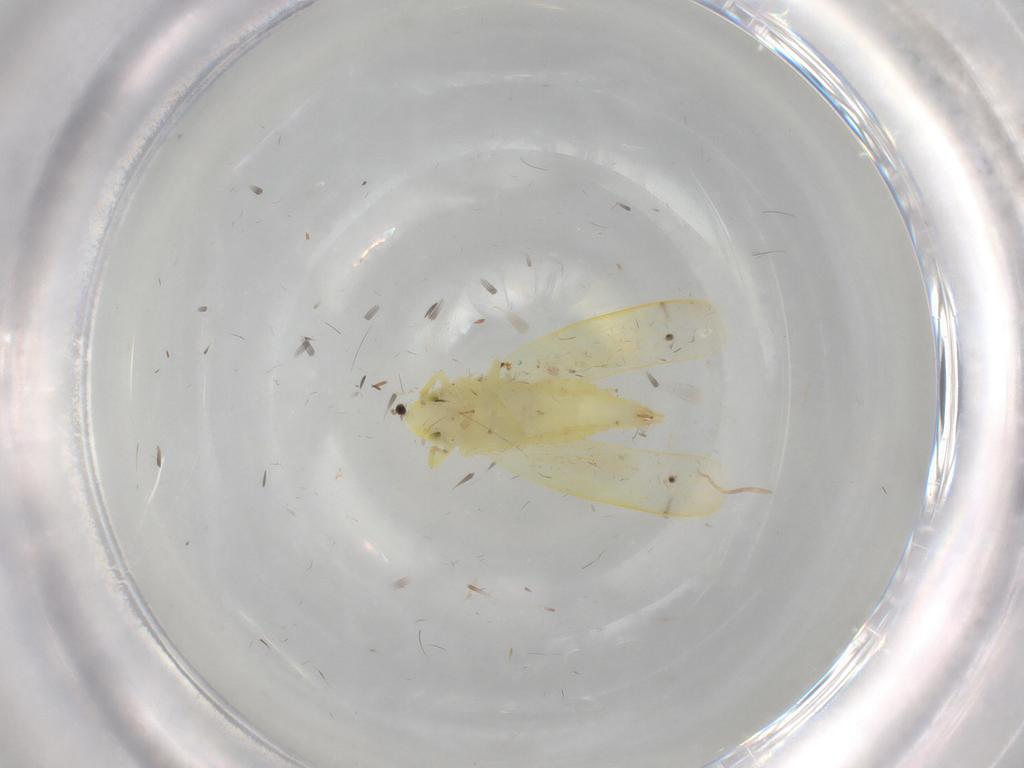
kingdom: Animalia
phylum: Arthropoda
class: Insecta
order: Hemiptera
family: Cicadellidae
